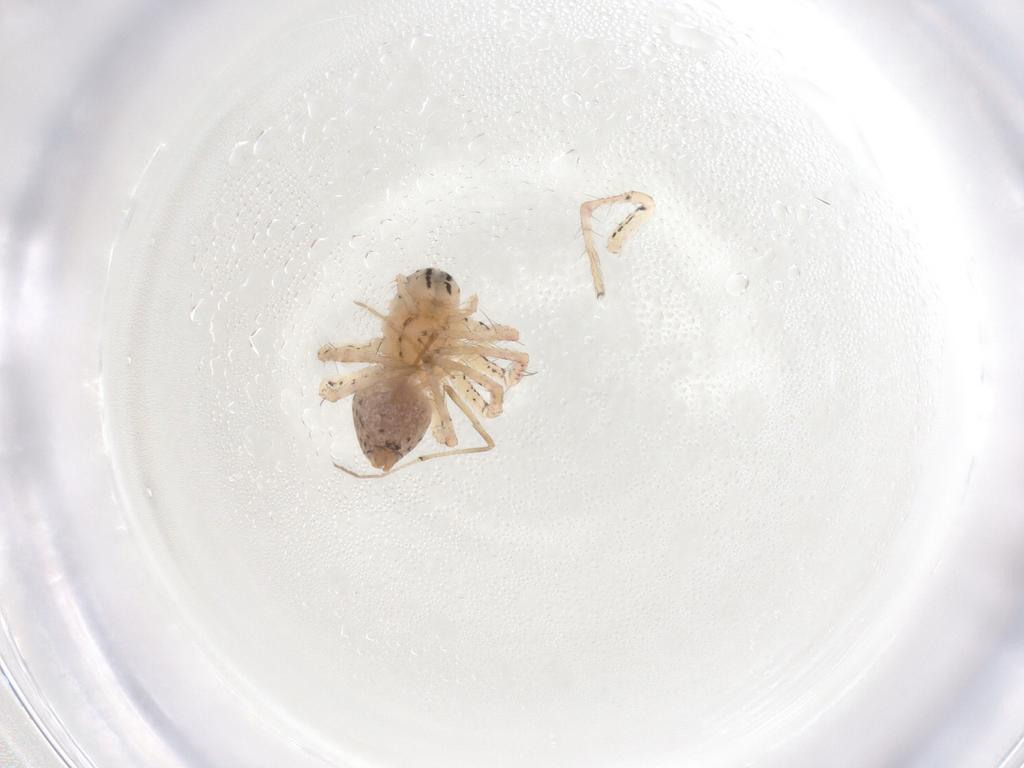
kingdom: Animalia
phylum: Arthropoda
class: Arachnida
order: Araneae
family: Oxyopidae
